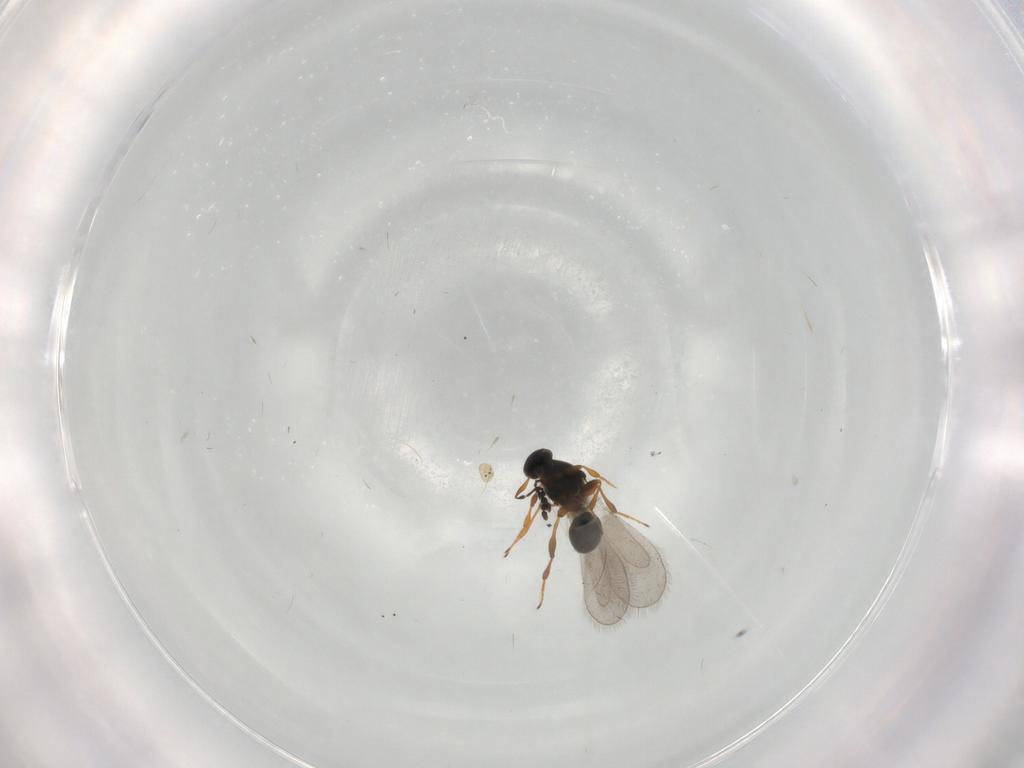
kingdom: Animalia
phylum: Arthropoda
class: Insecta
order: Hymenoptera
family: Platygastridae
